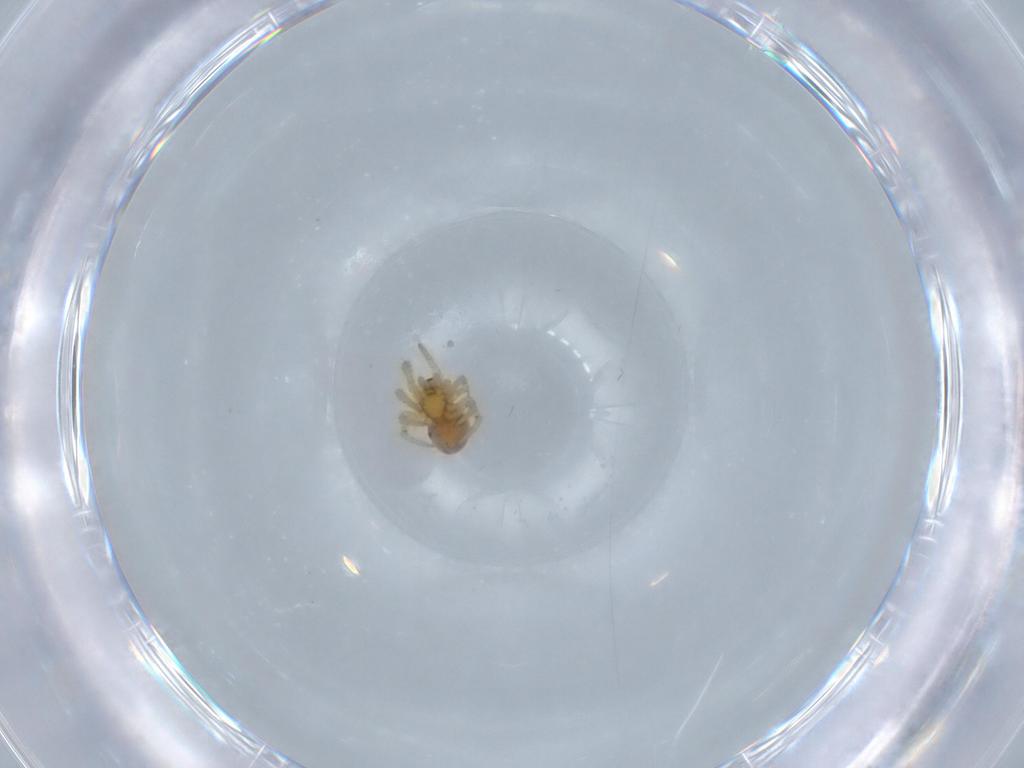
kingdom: Animalia
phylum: Arthropoda
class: Arachnida
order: Araneae
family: Theridiidae
